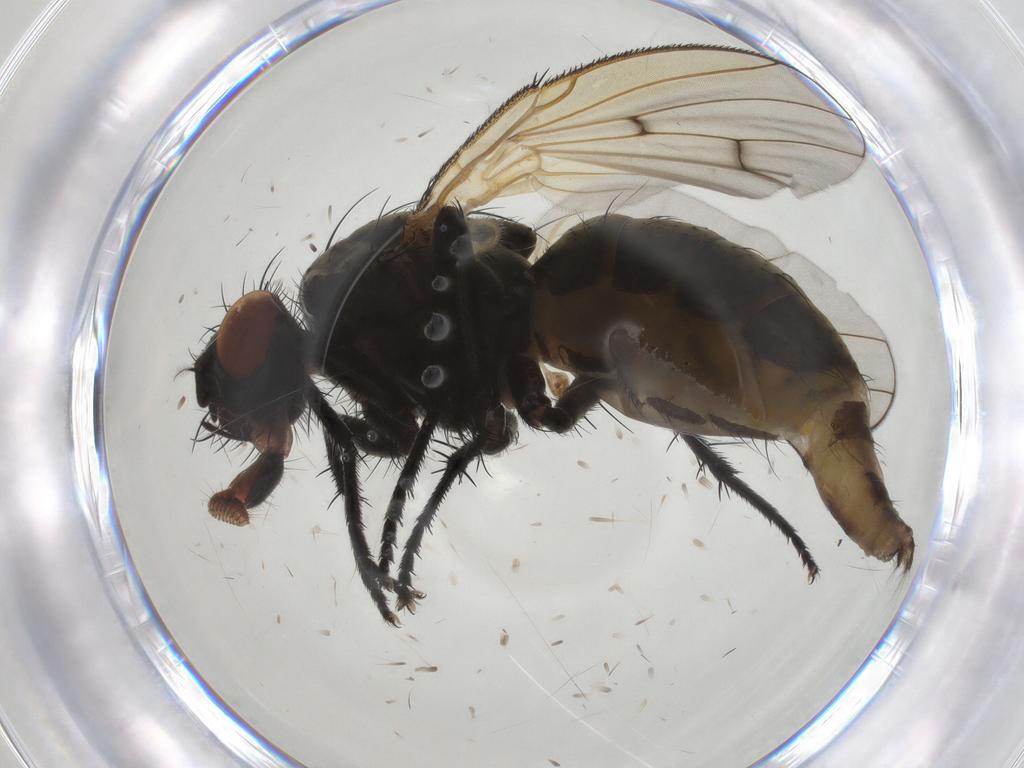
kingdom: Animalia
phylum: Arthropoda
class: Insecta
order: Diptera
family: Anthomyiidae
